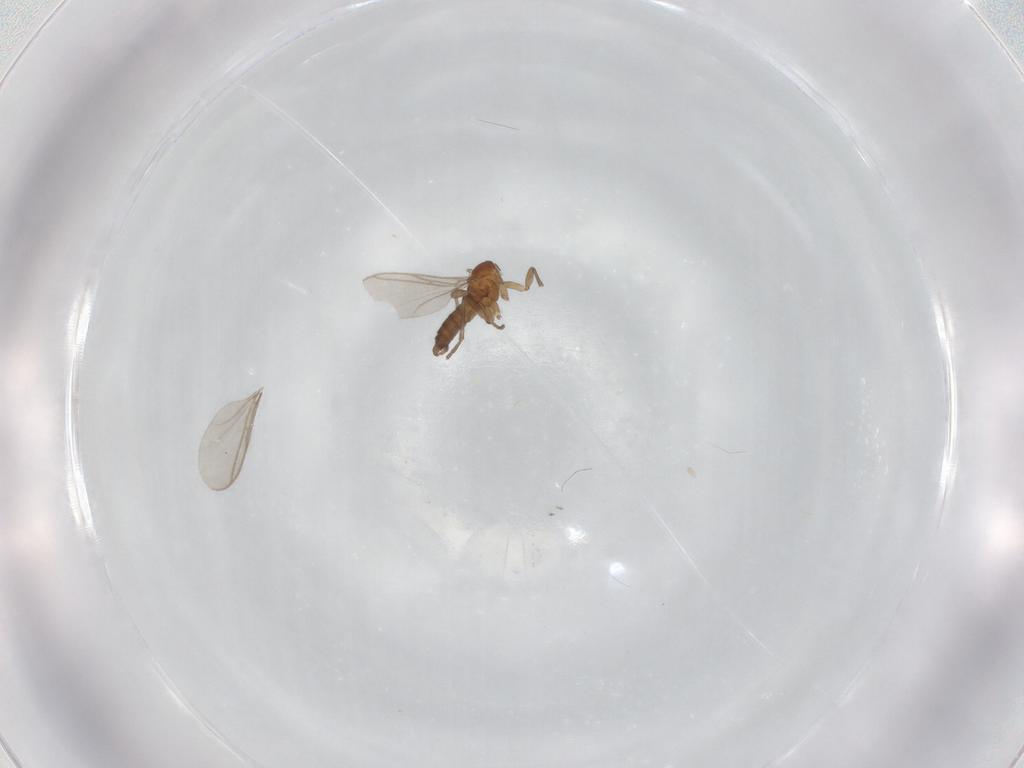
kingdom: Animalia
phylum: Arthropoda
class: Insecta
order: Diptera
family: Sciaridae
